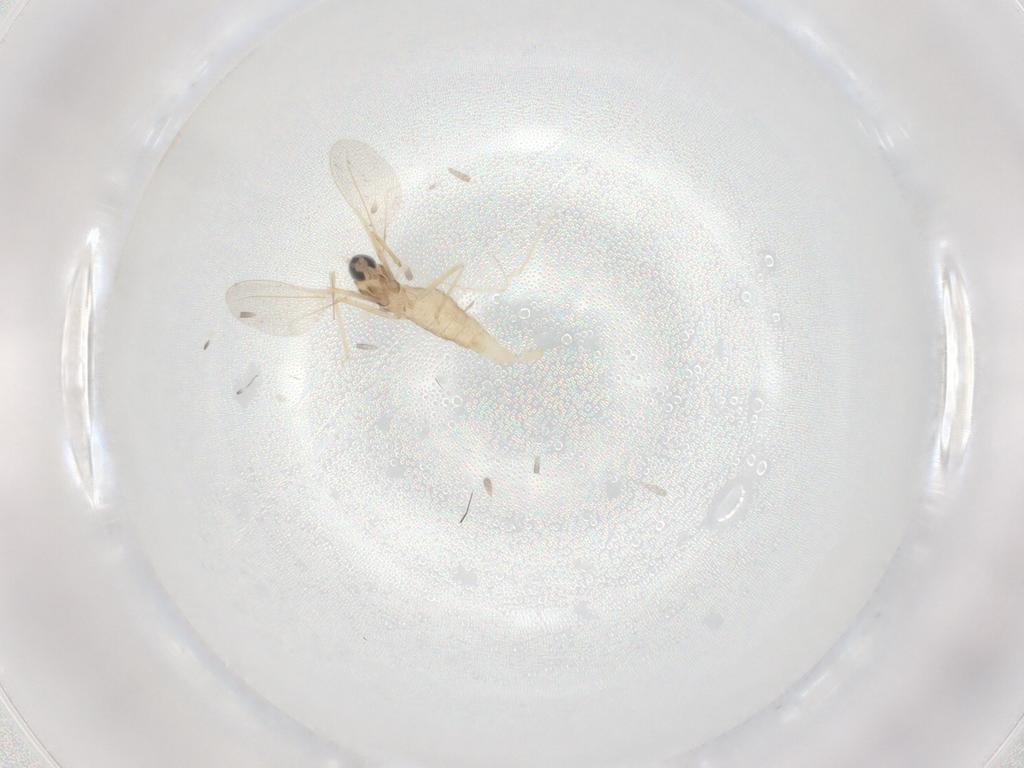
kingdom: Animalia
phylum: Arthropoda
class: Insecta
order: Diptera
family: Cecidomyiidae
